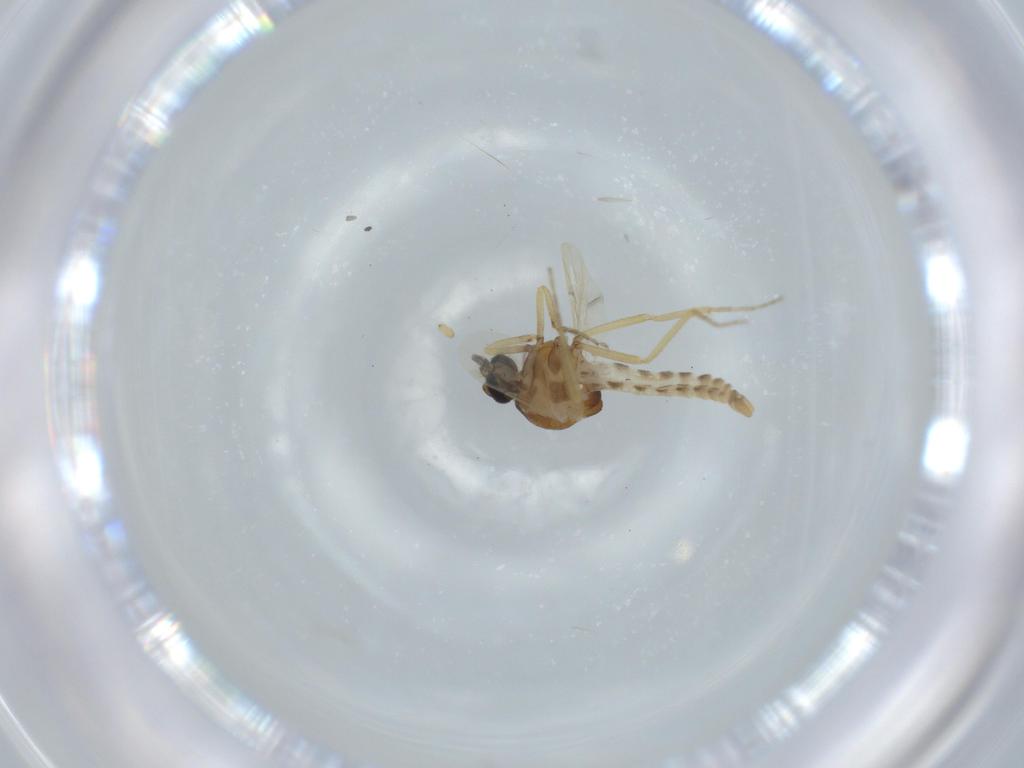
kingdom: Animalia
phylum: Arthropoda
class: Insecta
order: Diptera
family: Ceratopogonidae
